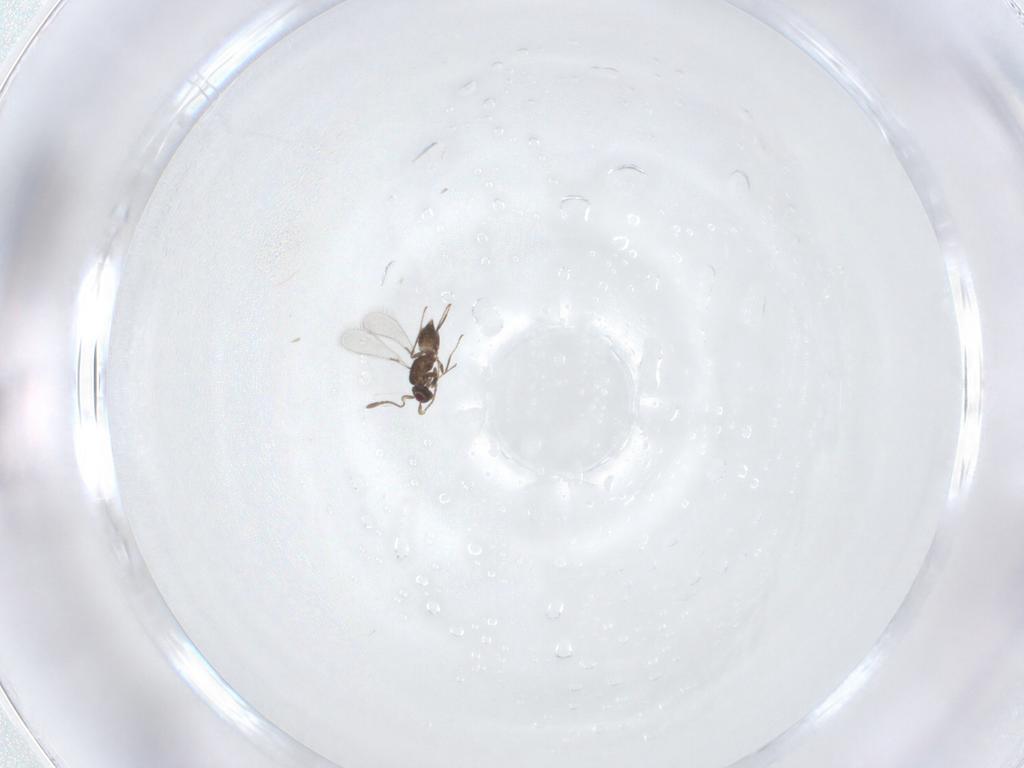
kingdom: Animalia
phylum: Arthropoda
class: Insecta
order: Hymenoptera
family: Mymaridae
